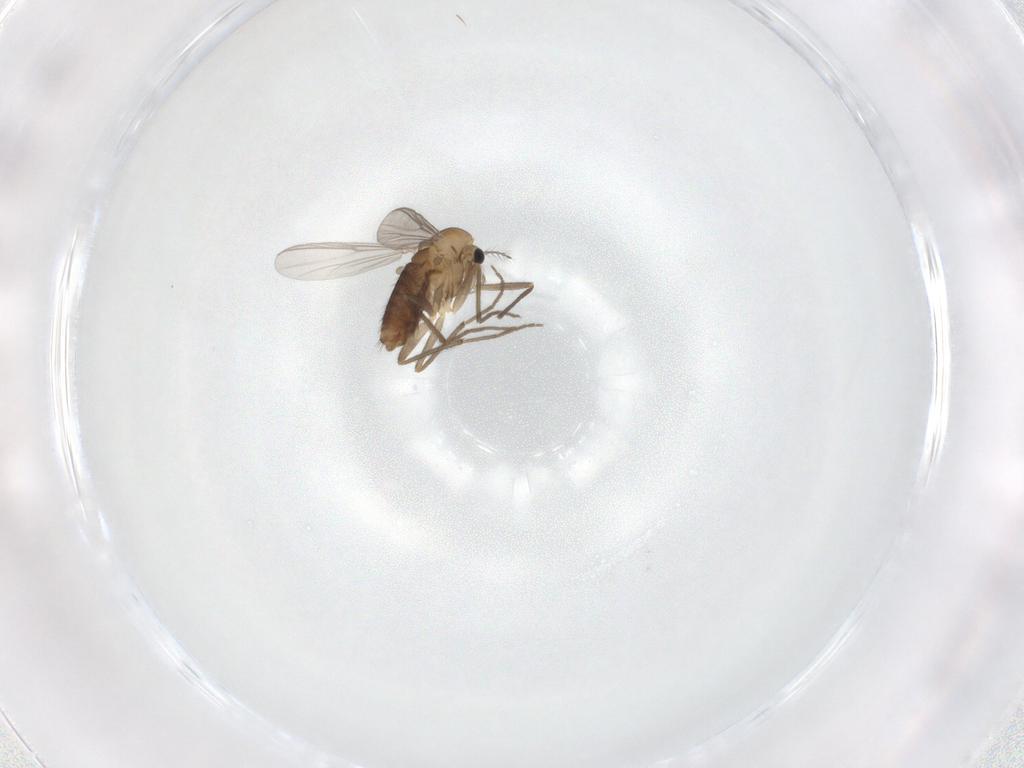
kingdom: Animalia
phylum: Arthropoda
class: Insecta
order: Diptera
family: Chironomidae
